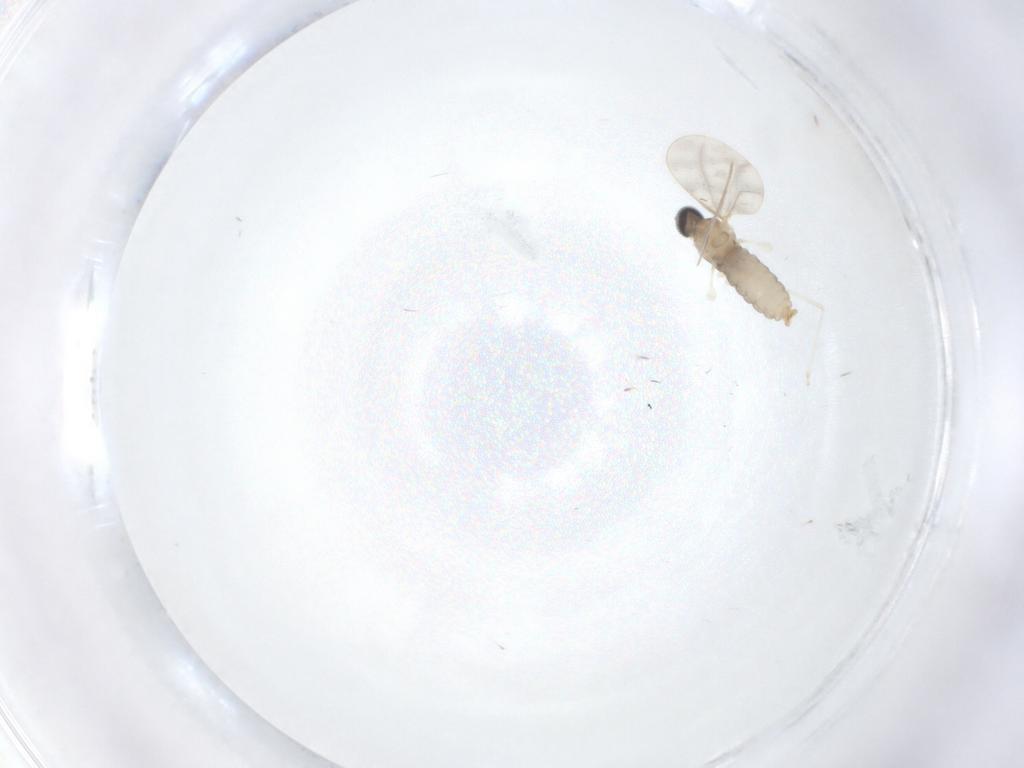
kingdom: Animalia
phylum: Arthropoda
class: Insecta
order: Diptera
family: Cecidomyiidae
